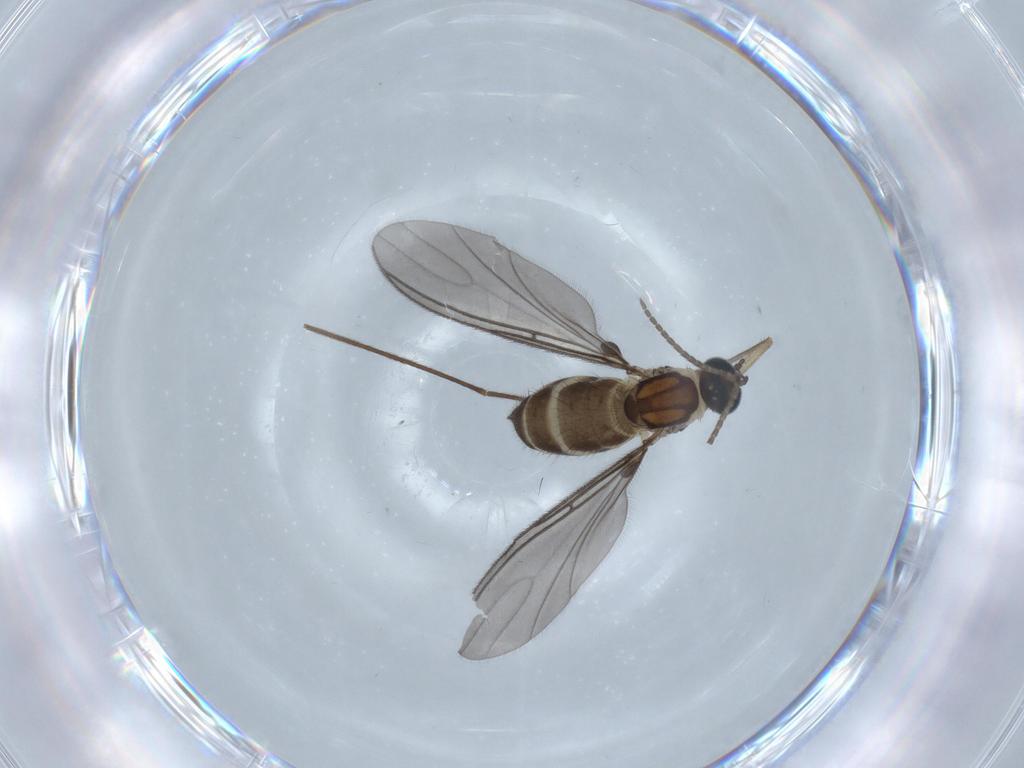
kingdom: Animalia
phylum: Arthropoda
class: Insecta
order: Diptera
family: Sciaridae
